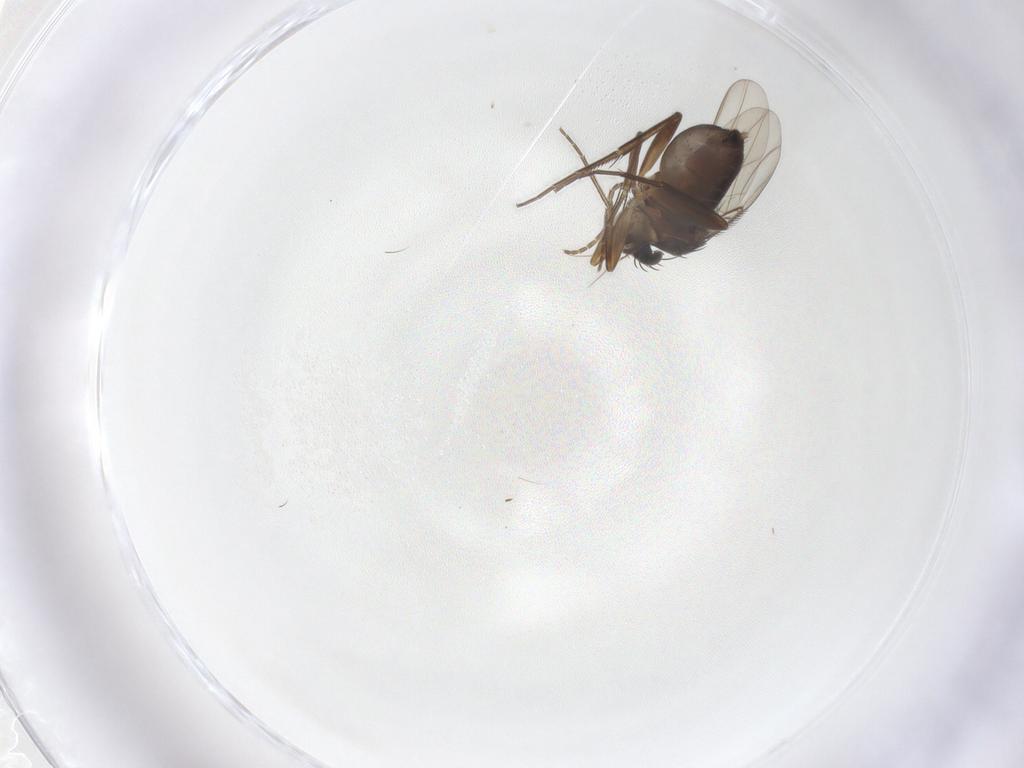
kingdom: Animalia
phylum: Arthropoda
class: Insecta
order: Diptera
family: Phoridae
